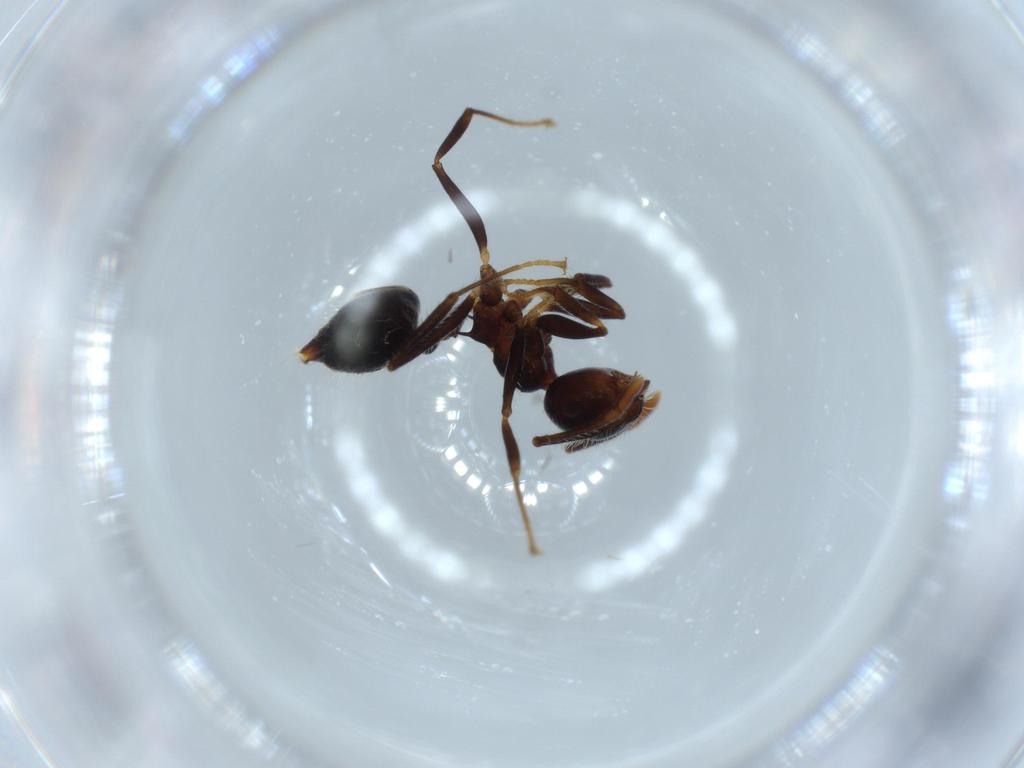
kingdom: Animalia
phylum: Arthropoda
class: Insecta
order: Hymenoptera
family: Formicidae
